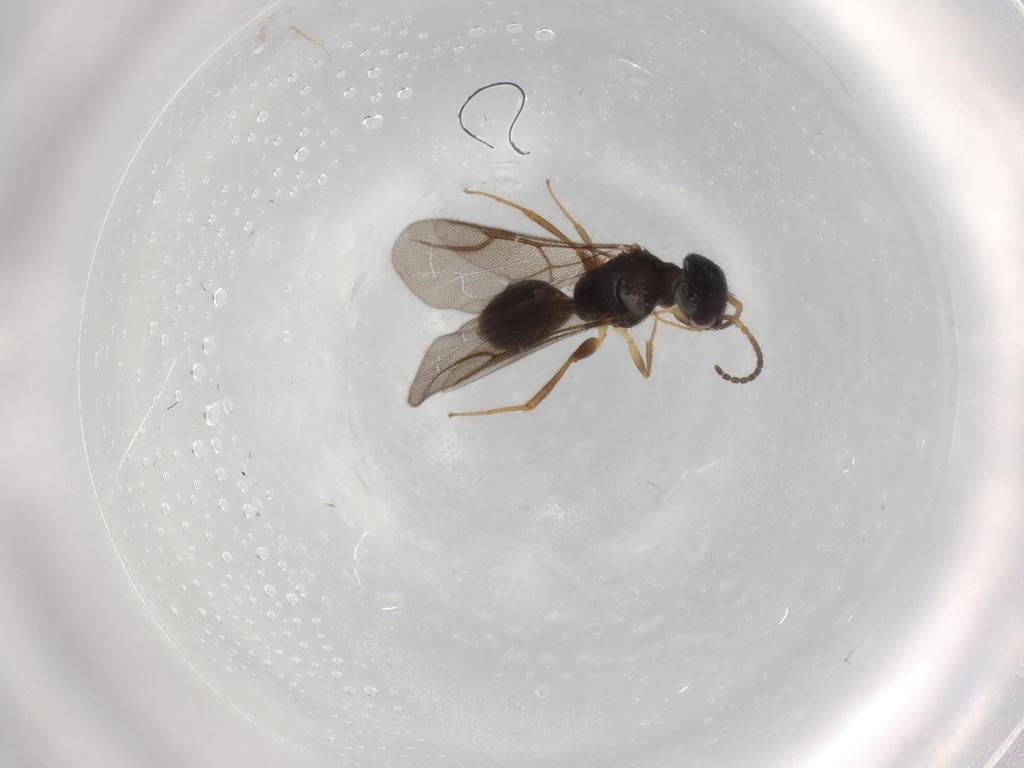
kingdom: Animalia
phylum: Arthropoda
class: Insecta
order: Hymenoptera
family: Bethylidae
